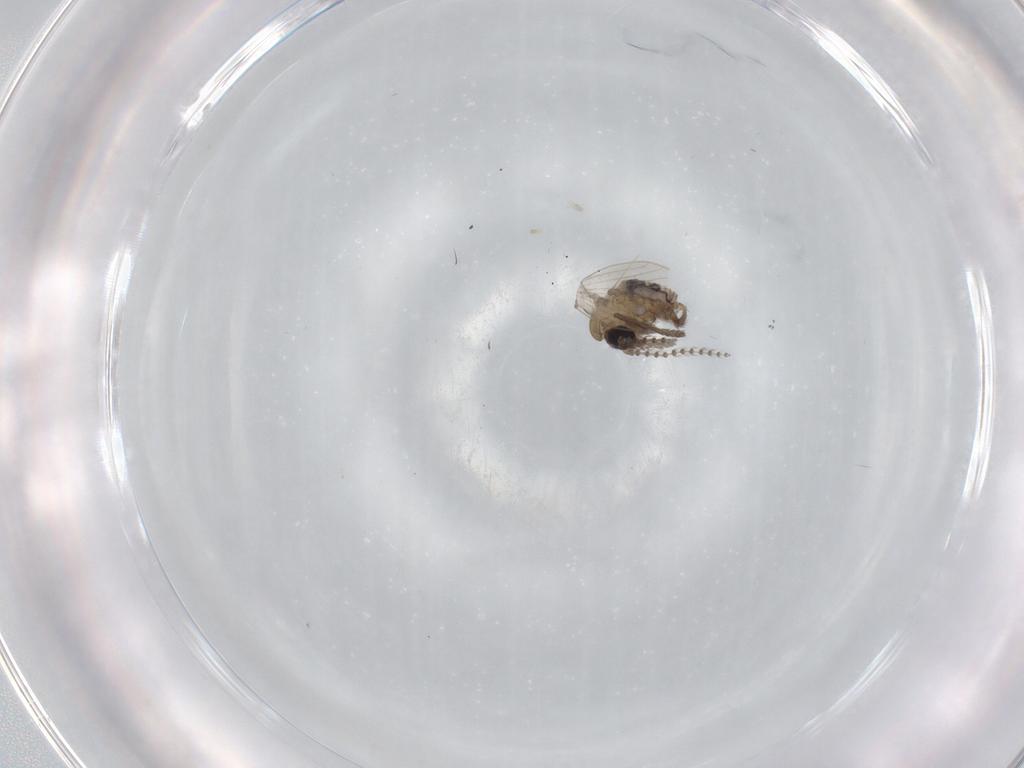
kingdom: Animalia
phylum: Arthropoda
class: Insecta
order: Diptera
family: Psychodidae
